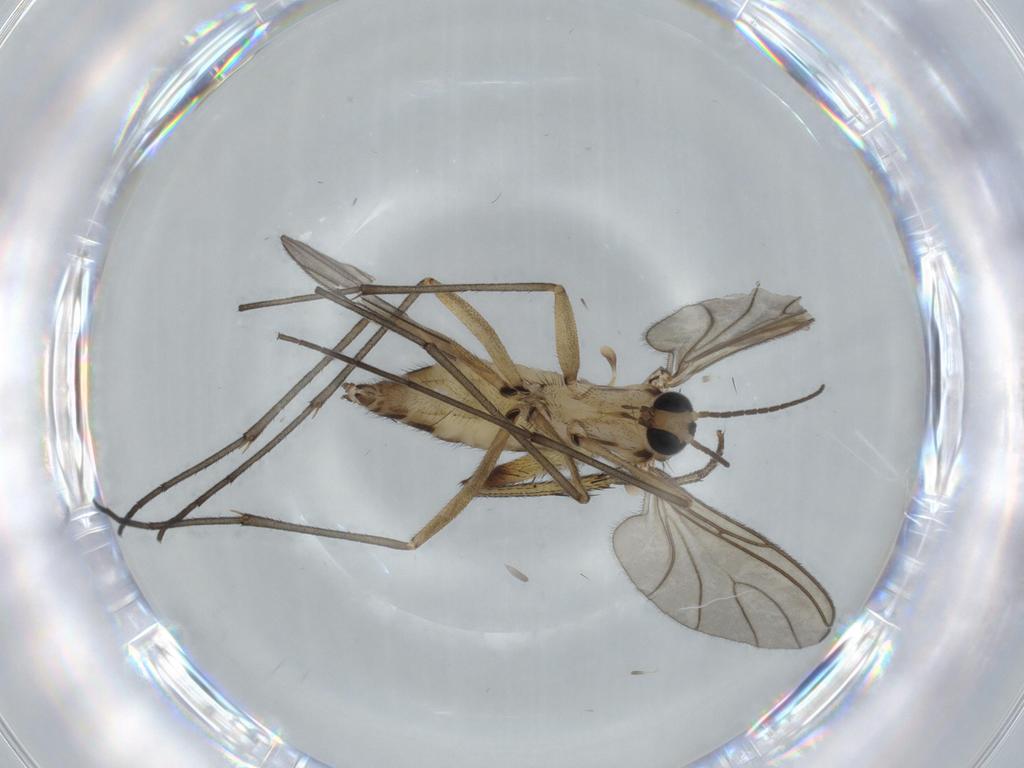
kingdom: Animalia
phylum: Arthropoda
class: Insecta
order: Diptera
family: Sciaridae
